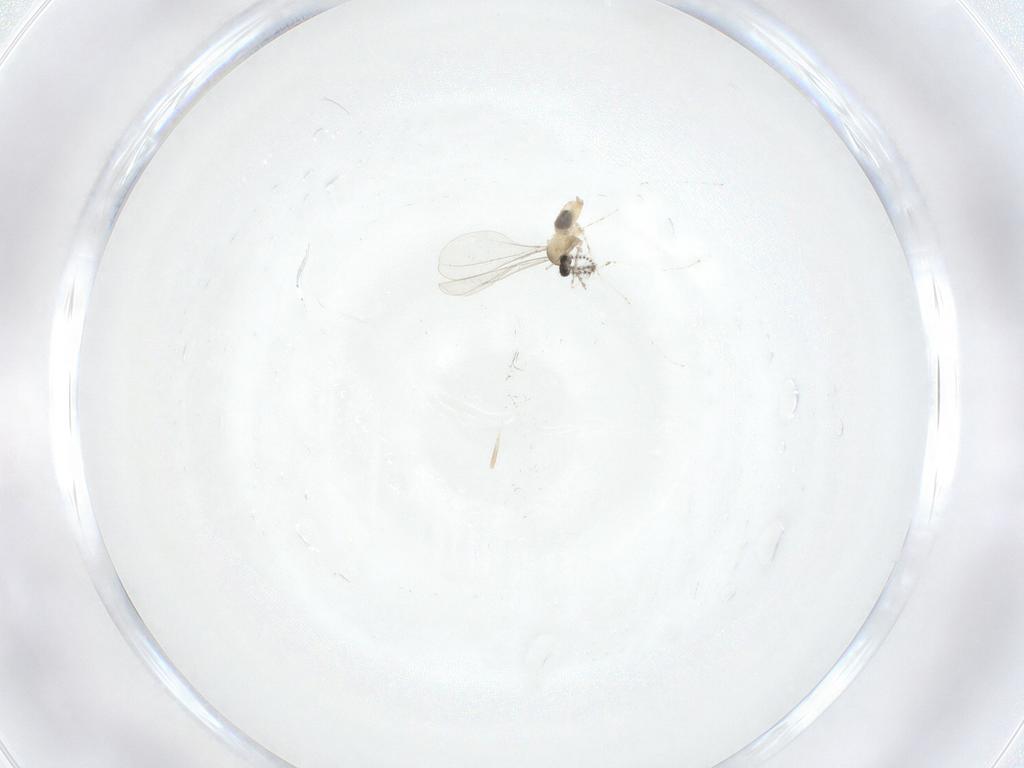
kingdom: Animalia
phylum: Arthropoda
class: Insecta
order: Diptera
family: Cecidomyiidae
